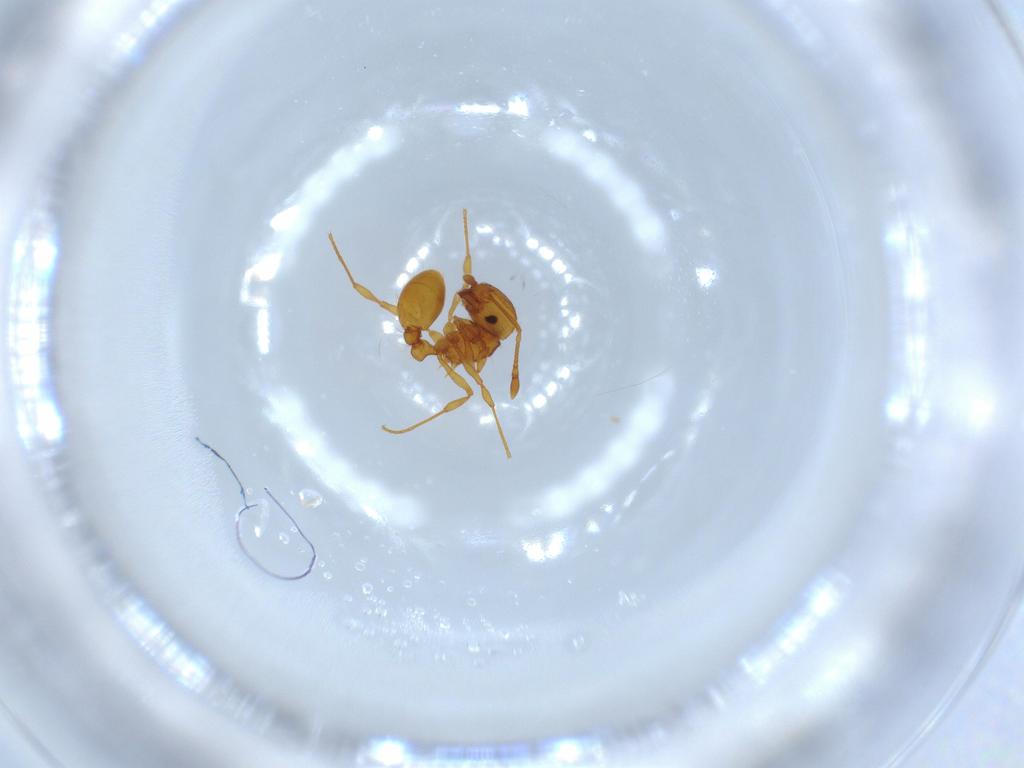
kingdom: Animalia
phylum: Arthropoda
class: Insecta
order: Hymenoptera
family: Formicidae
